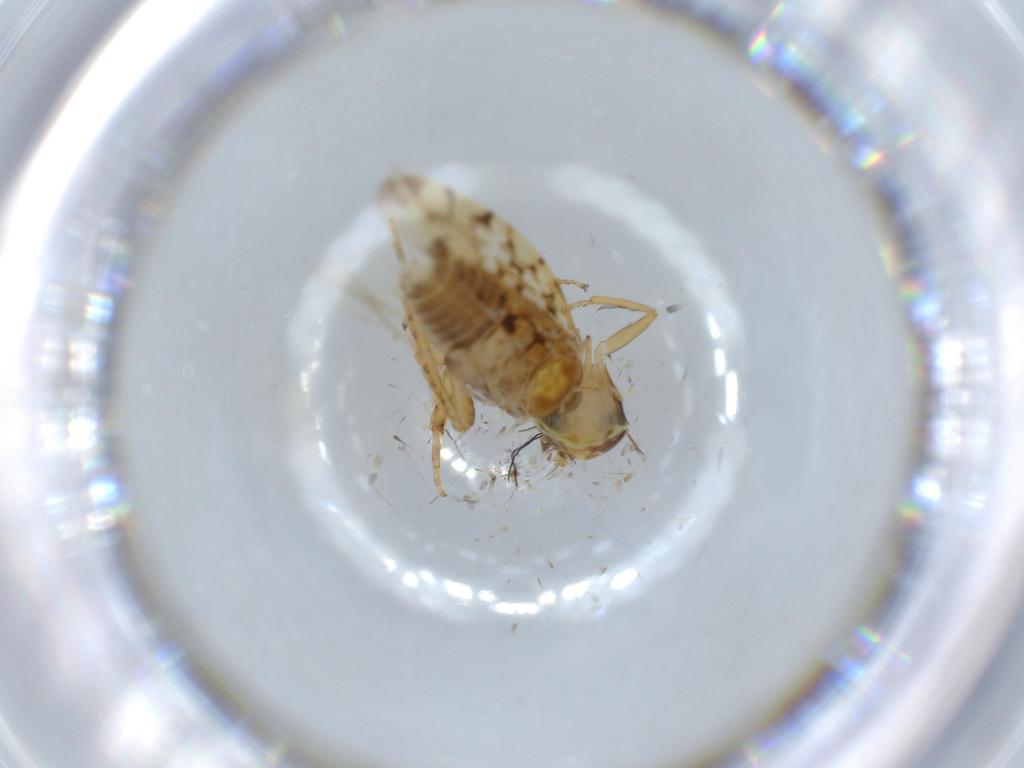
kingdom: Animalia
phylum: Arthropoda
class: Insecta
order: Hemiptera
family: Cicadellidae
